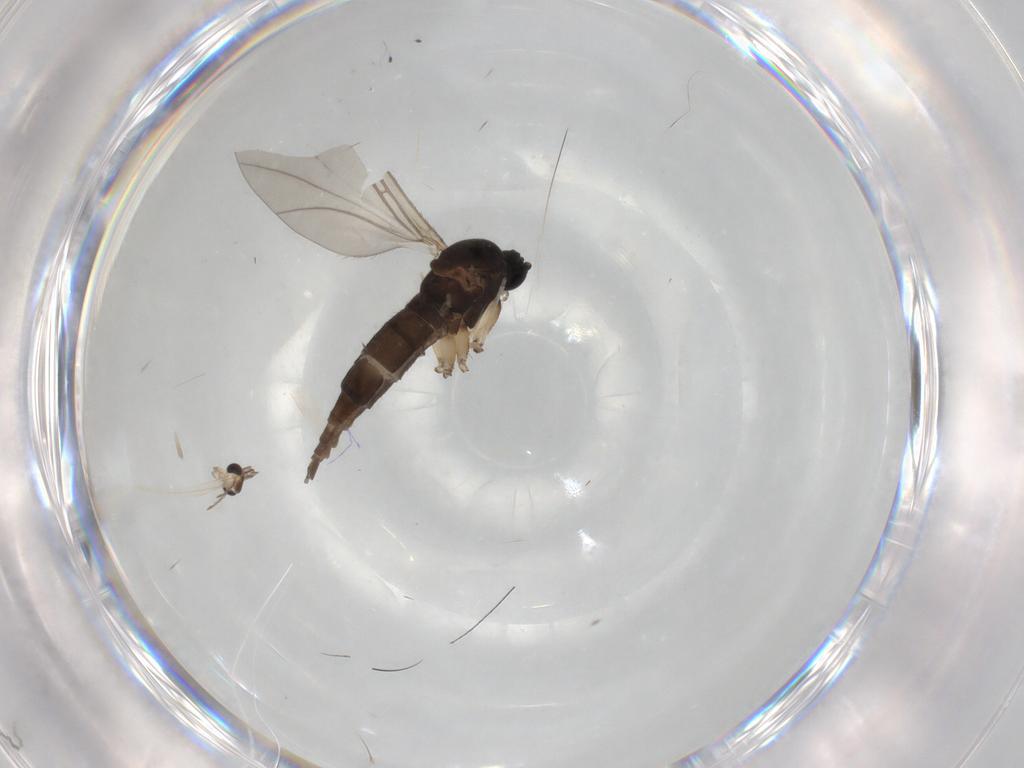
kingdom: Animalia
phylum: Arthropoda
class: Insecta
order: Diptera
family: Sciaridae
